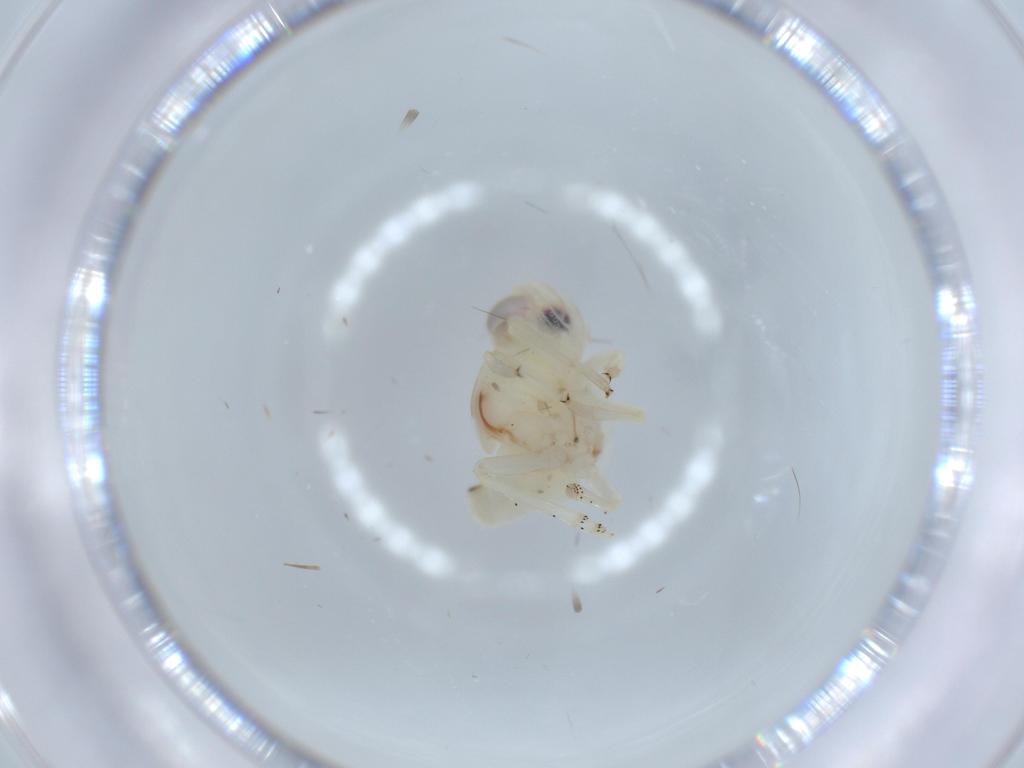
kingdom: Animalia
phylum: Arthropoda
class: Insecta
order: Hemiptera
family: Nogodinidae
